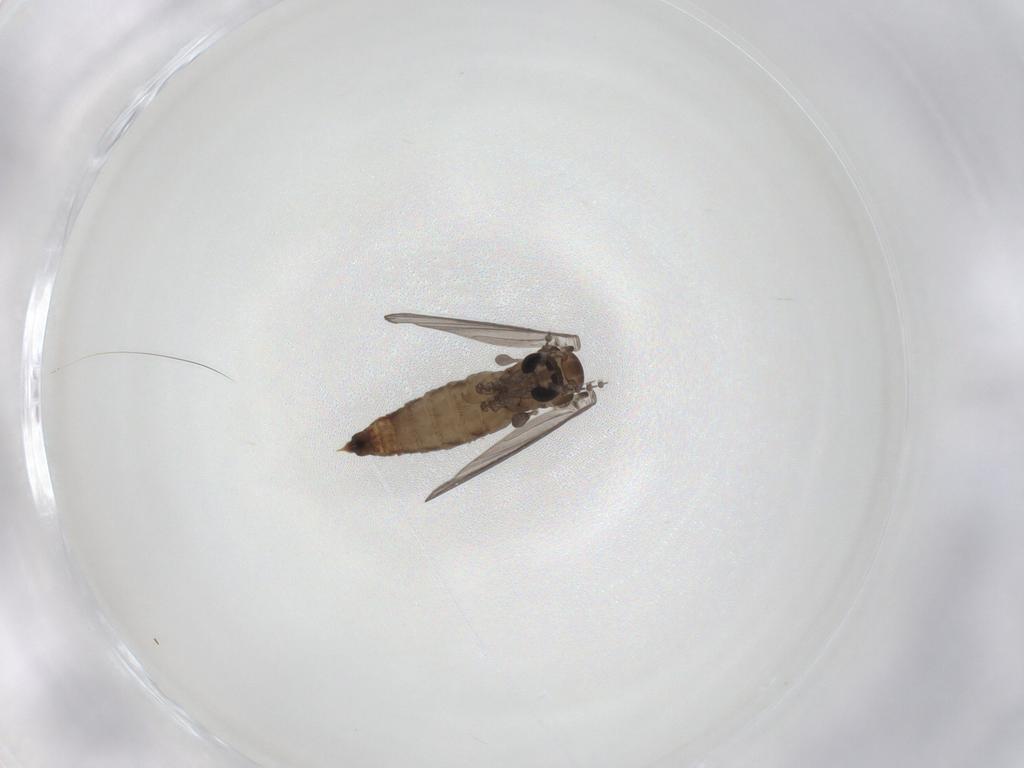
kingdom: Animalia
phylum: Arthropoda
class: Insecta
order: Diptera
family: Psychodidae
